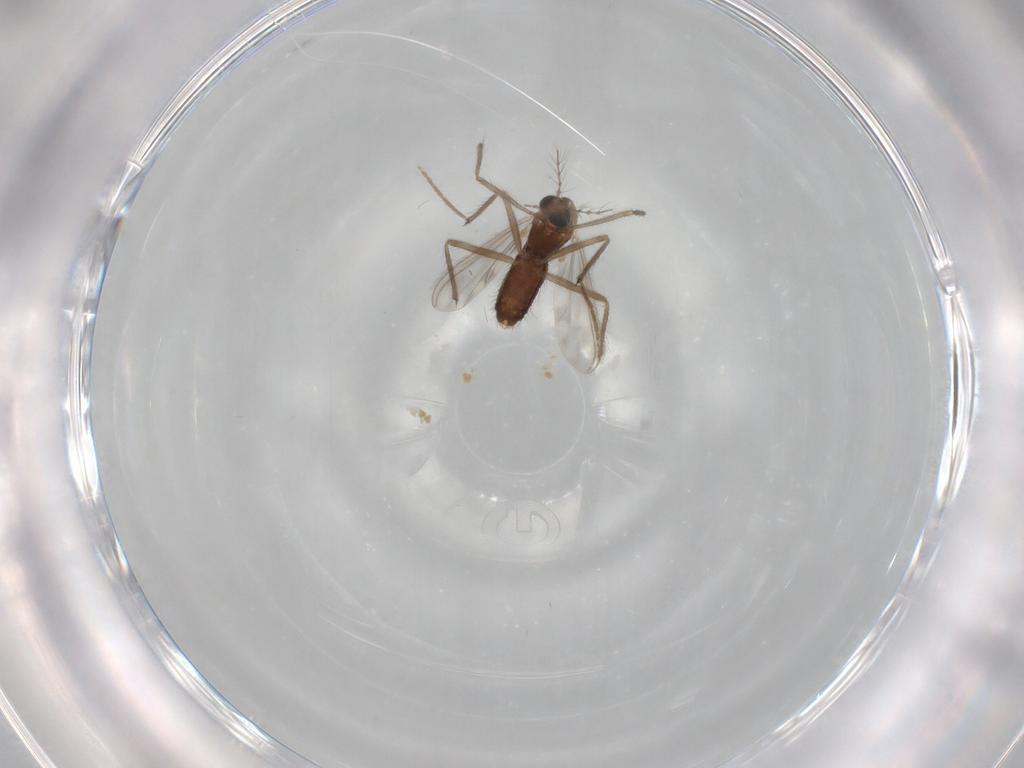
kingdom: Animalia
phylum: Arthropoda
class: Insecta
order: Diptera
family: Chironomidae
